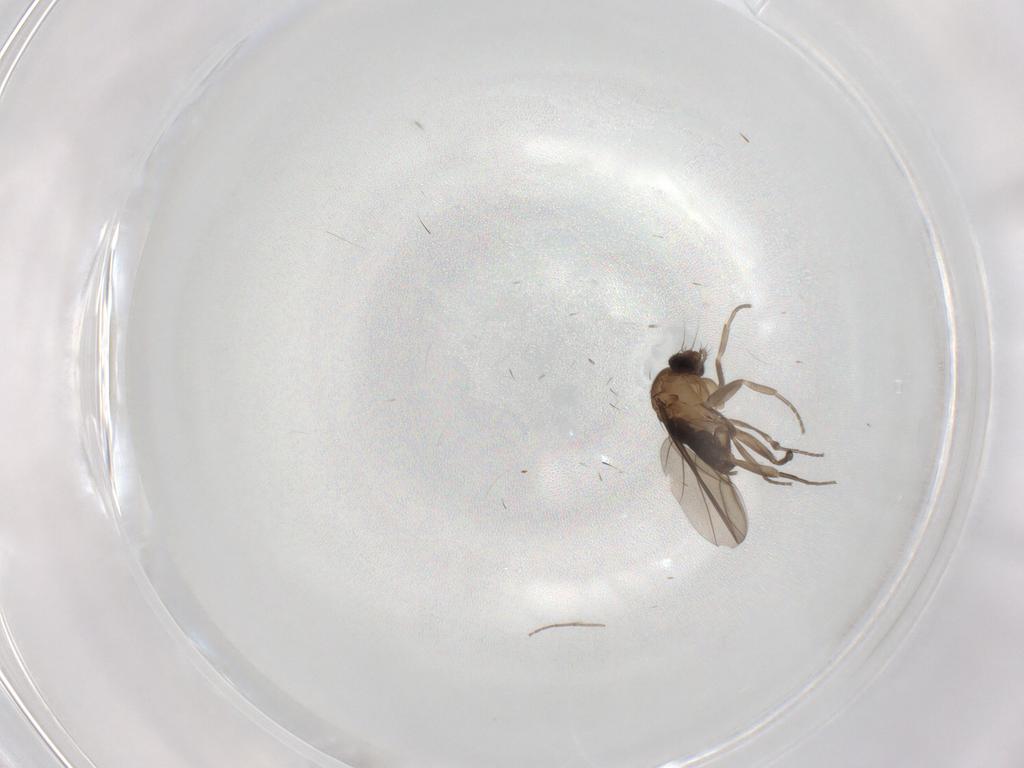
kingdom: Animalia
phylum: Arthropoda
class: Insecta
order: Diptera
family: Phoridae
